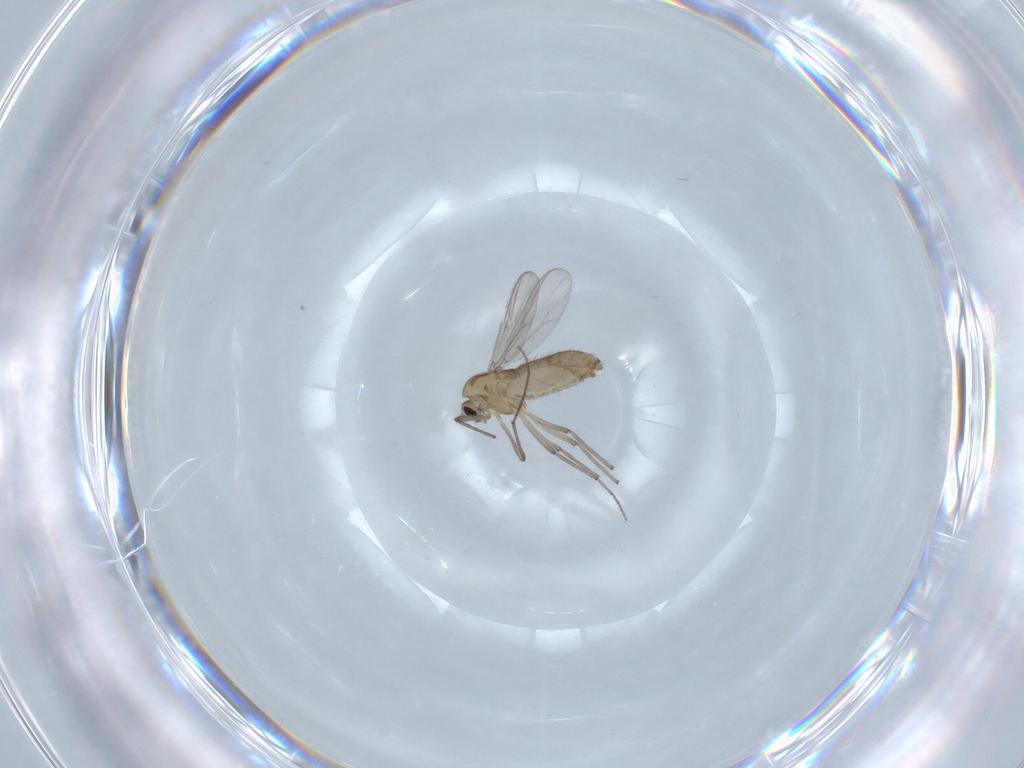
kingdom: Animalia
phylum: Arthropoda
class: Insecta
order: Diptera
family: Chironomidae
